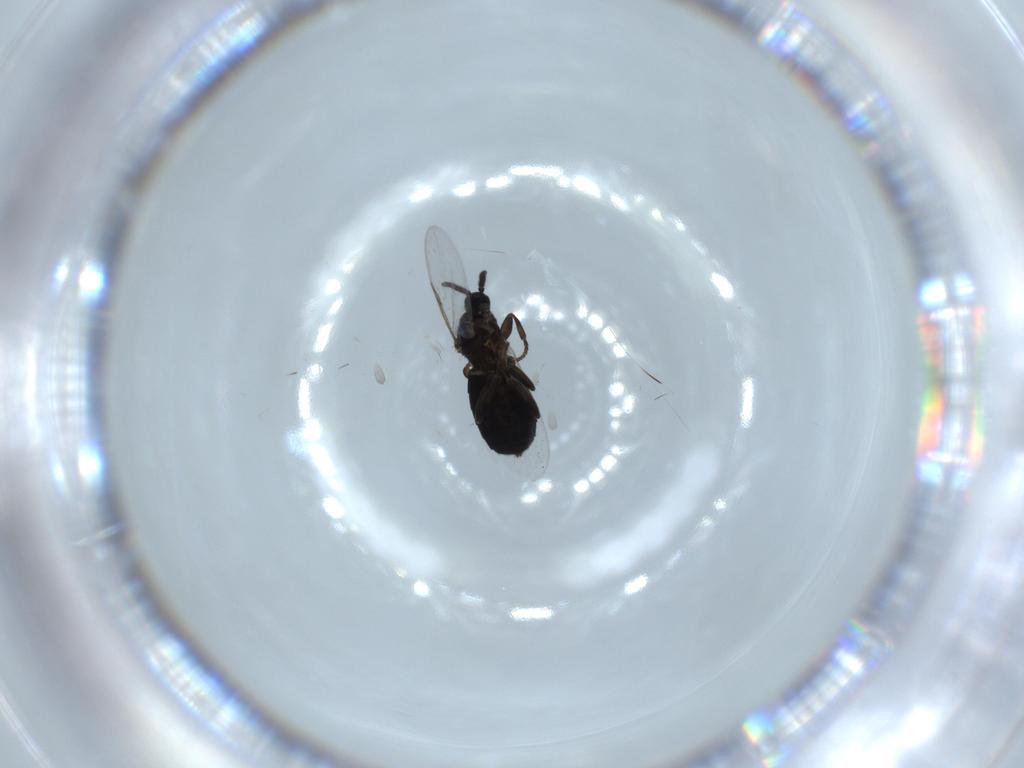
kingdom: Animalia
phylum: Arthropoda
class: Insecta
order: Diptera
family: Calliphoridae
